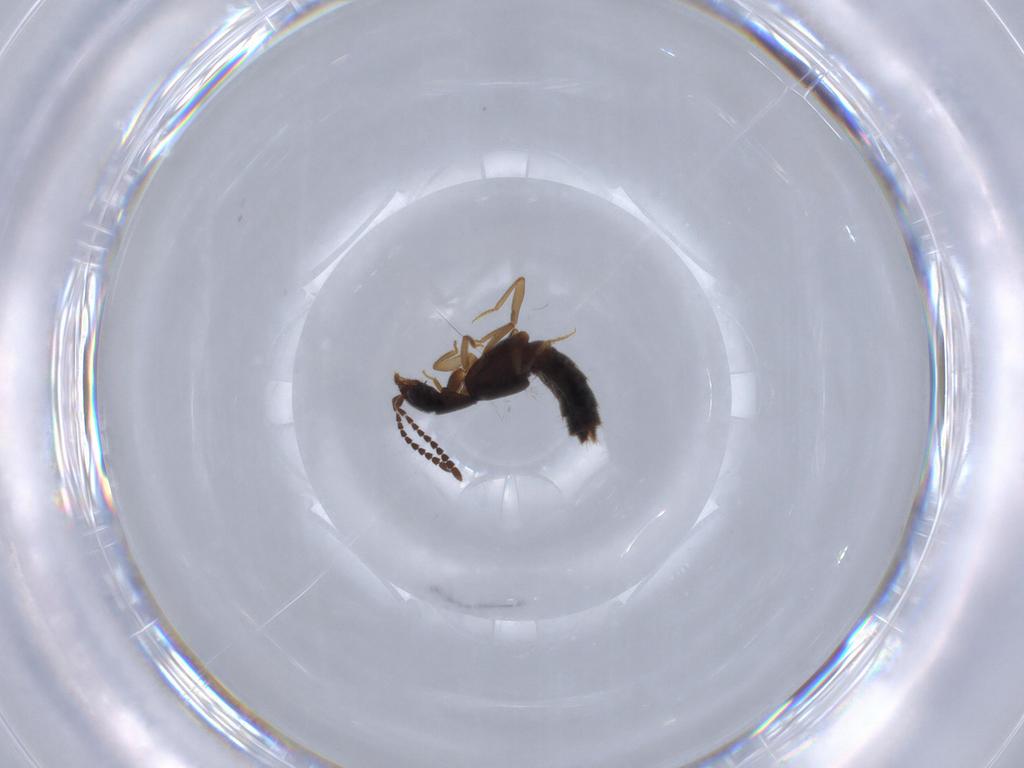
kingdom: Animalia
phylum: Arthropoda
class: Insecta
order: Coleoptera
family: Staphylinidae
